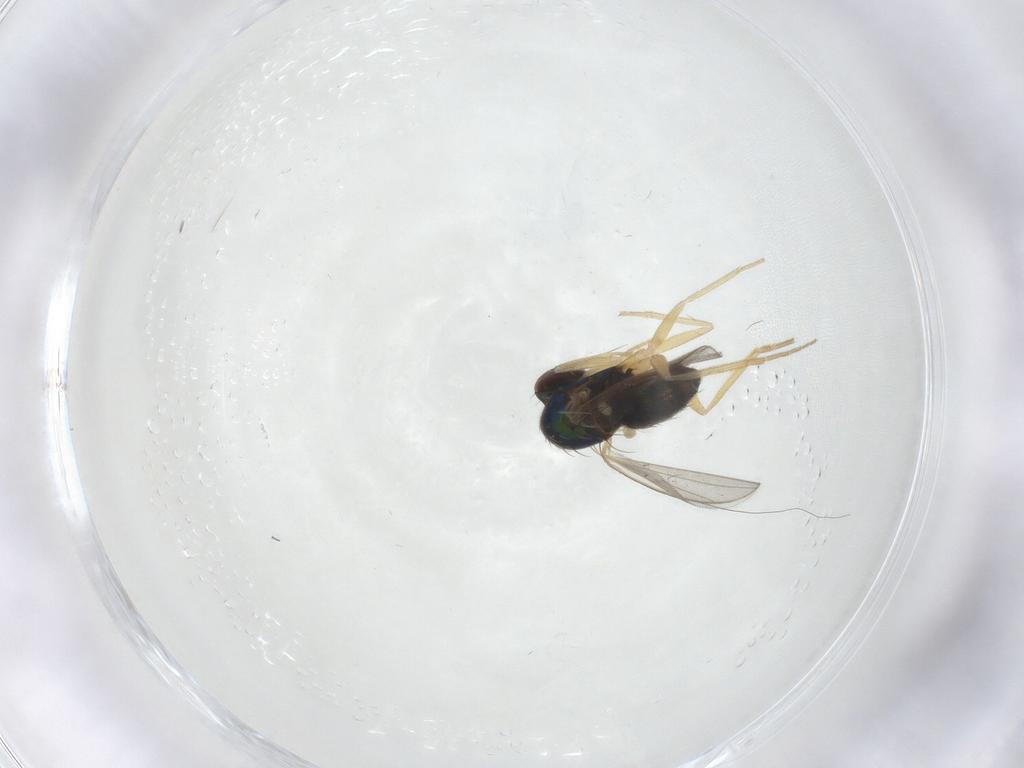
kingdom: Animalia
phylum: Arthropoda
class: Insecta
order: Diptera
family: Dolichopodidae
